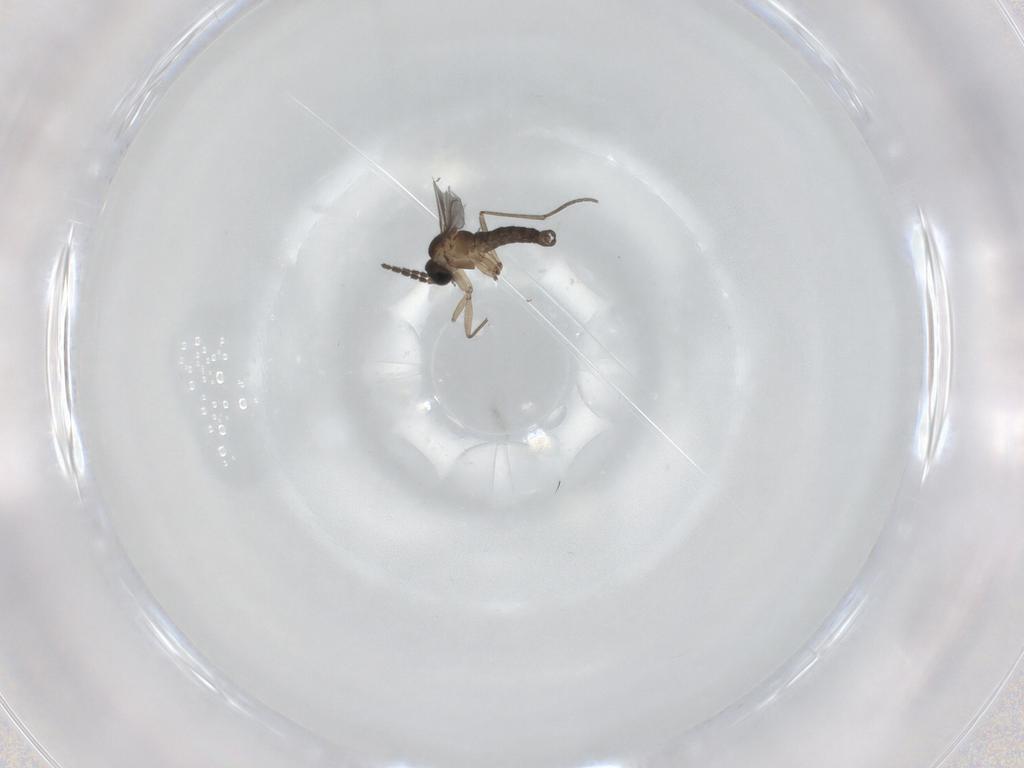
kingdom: Animalia
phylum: Arthropoda
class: Insecta
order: Diptera
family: Sciaridae
